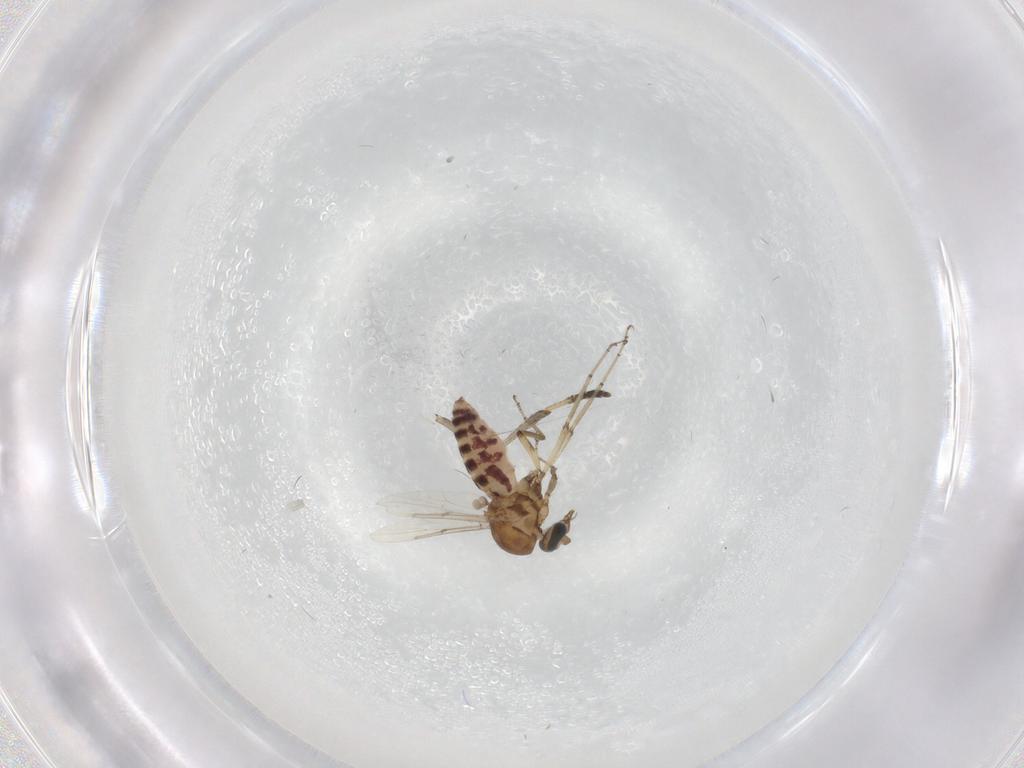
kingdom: Animalia
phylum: Arthropoda
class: Insecta
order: Diptera
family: Ceratopogonidae
